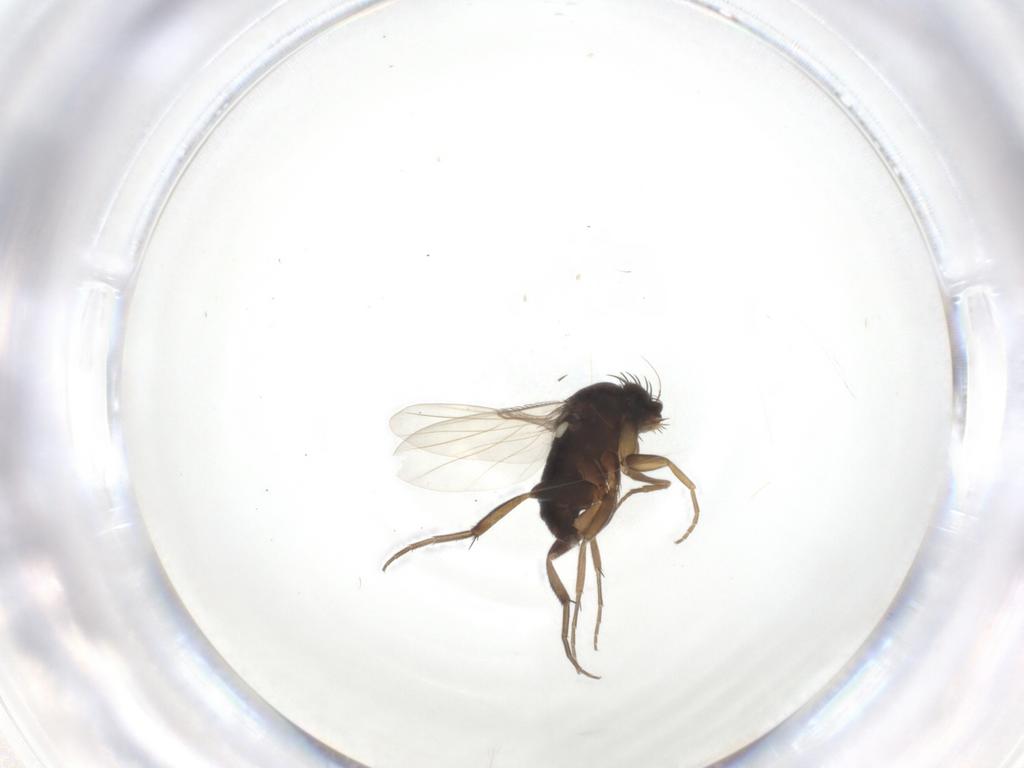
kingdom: Animalia
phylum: Arthropoda
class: Insecta
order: Diptera
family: Phoridae
